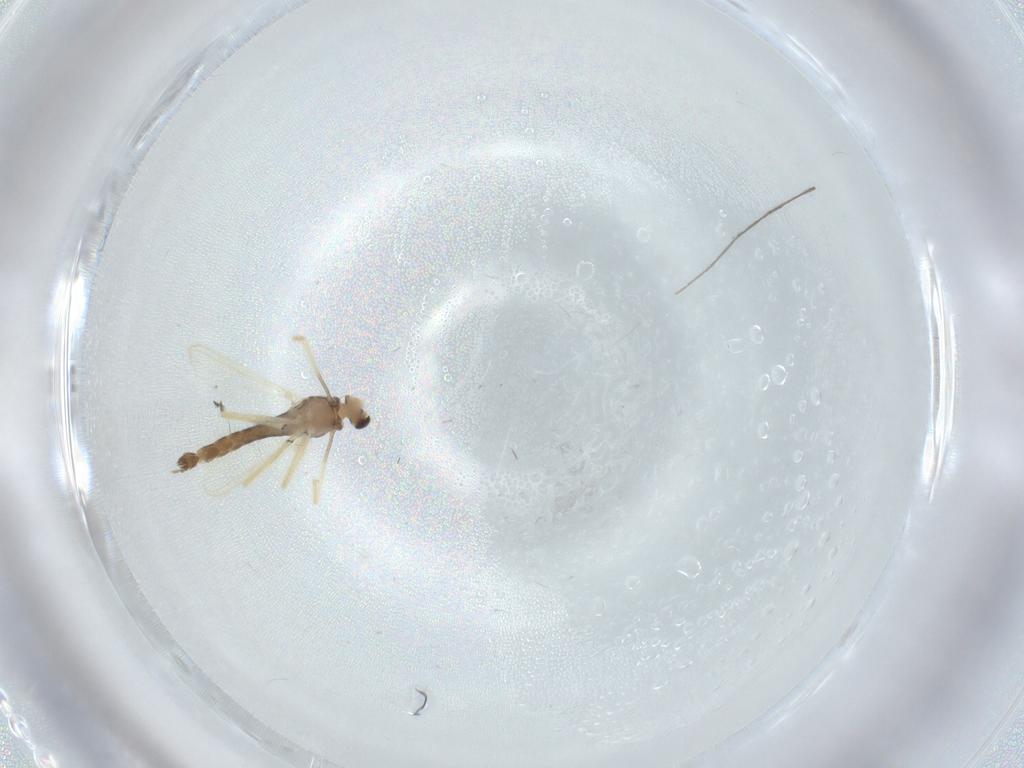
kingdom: Animalia
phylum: Arthropoda
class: Insecta
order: Diptera
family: Chironomidae
